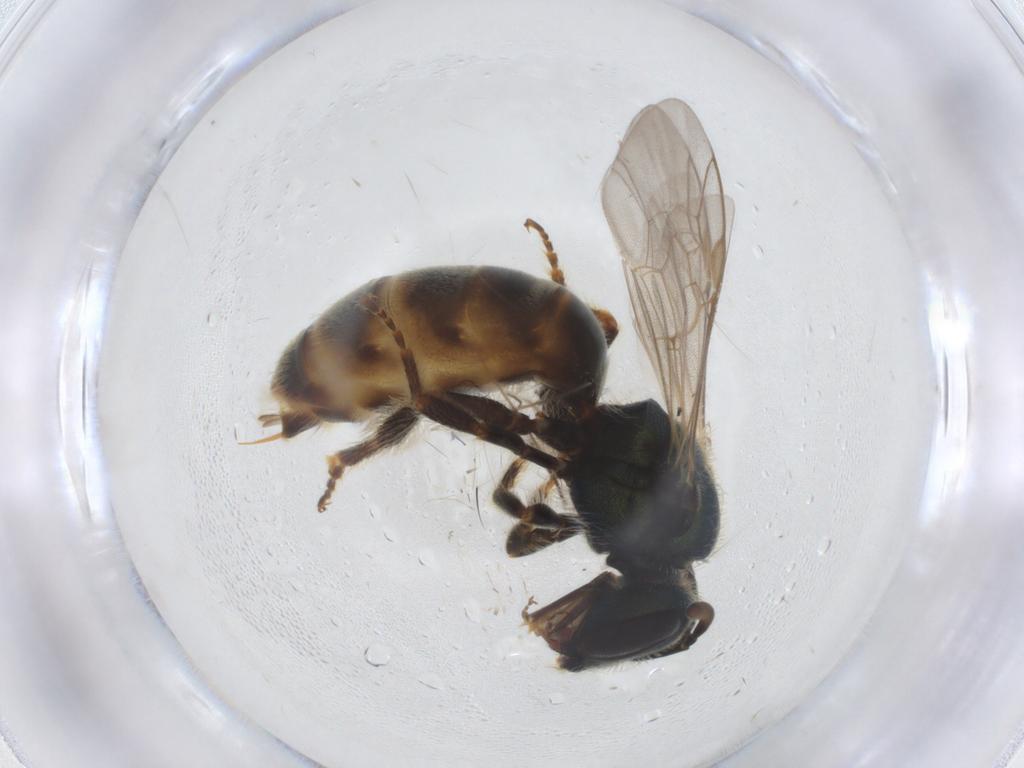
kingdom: Animalia
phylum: Arthropoda
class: Insecta
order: Hymenoptera
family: Halictidae
